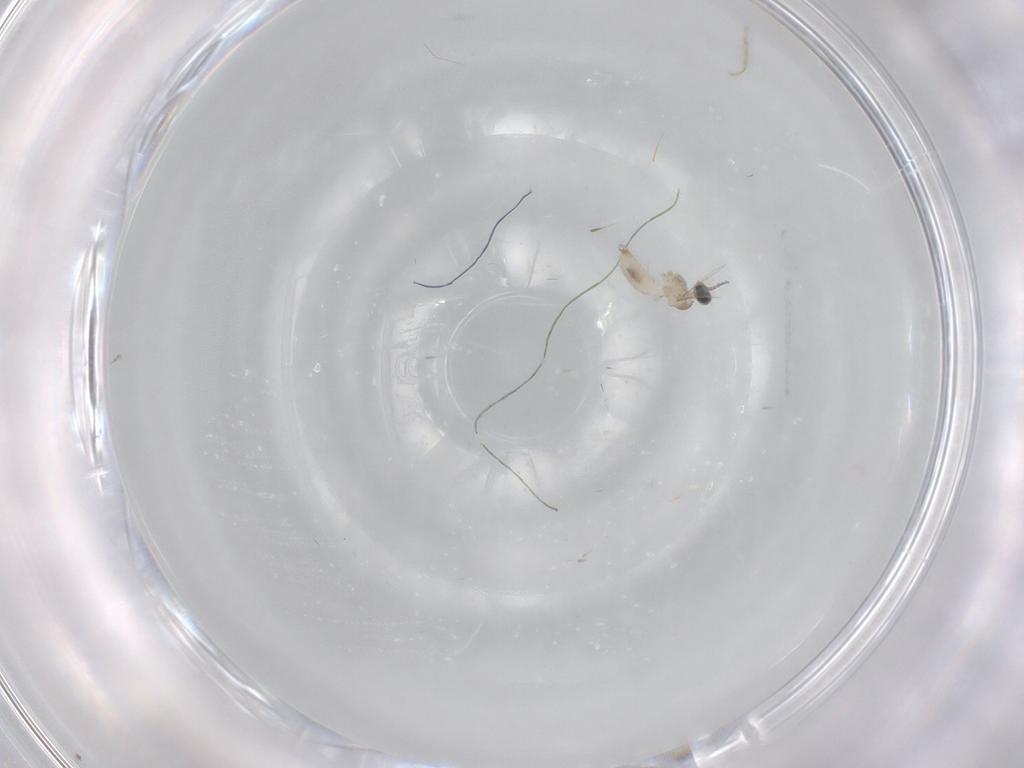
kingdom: Animalia
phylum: Arthropoda
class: Insecta
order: Diptera
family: Cecidomyiidae
